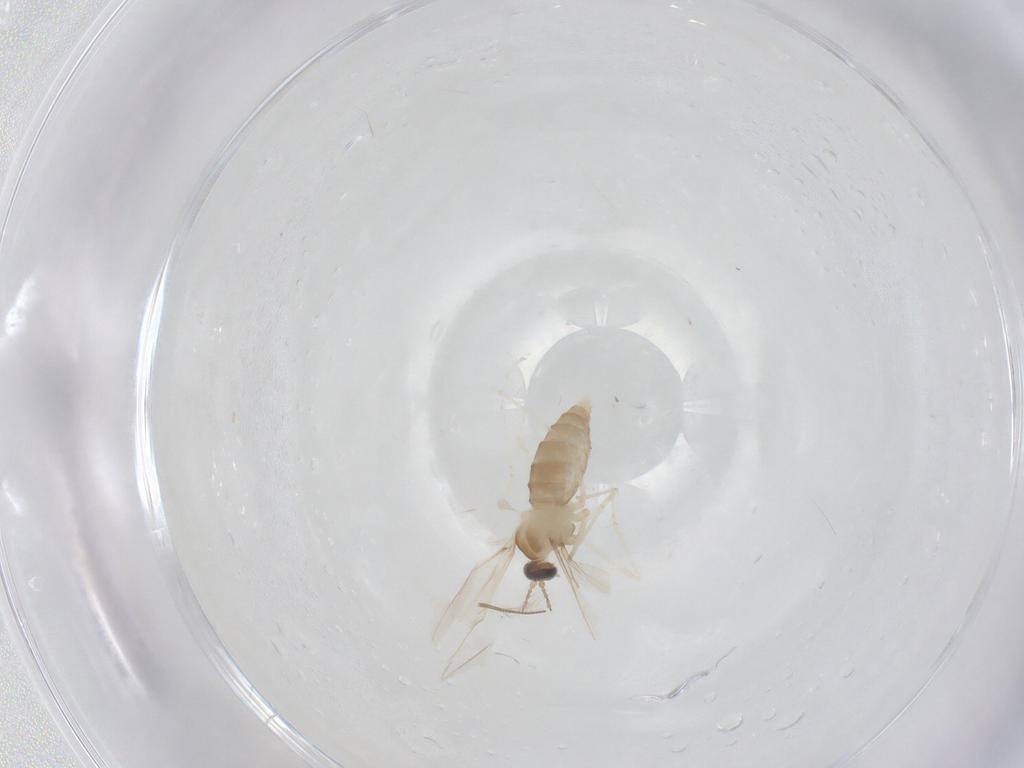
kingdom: Animalia
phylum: Arthropoda
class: Insecta
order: Diptera
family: Cecidomyiidae
